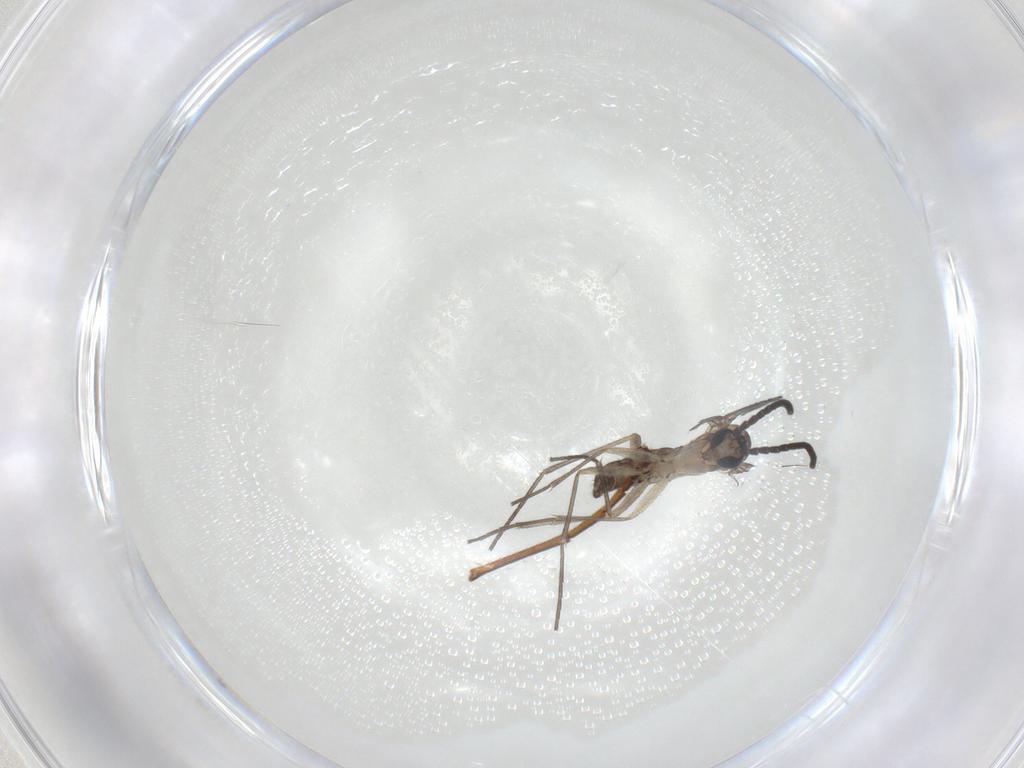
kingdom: Animalia
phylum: Arthropoda
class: Insecta
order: Diptera
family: Sciaridae
